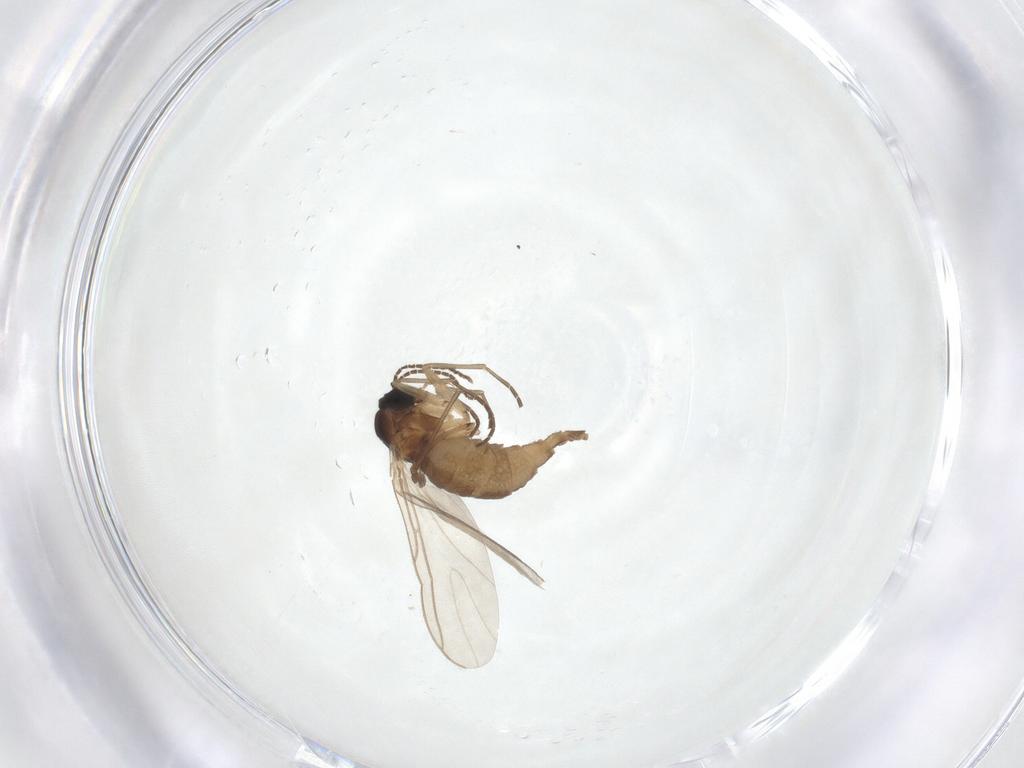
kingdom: Animalia
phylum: Arthropoda
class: Insecta
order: Diptera
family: Sciaridae
